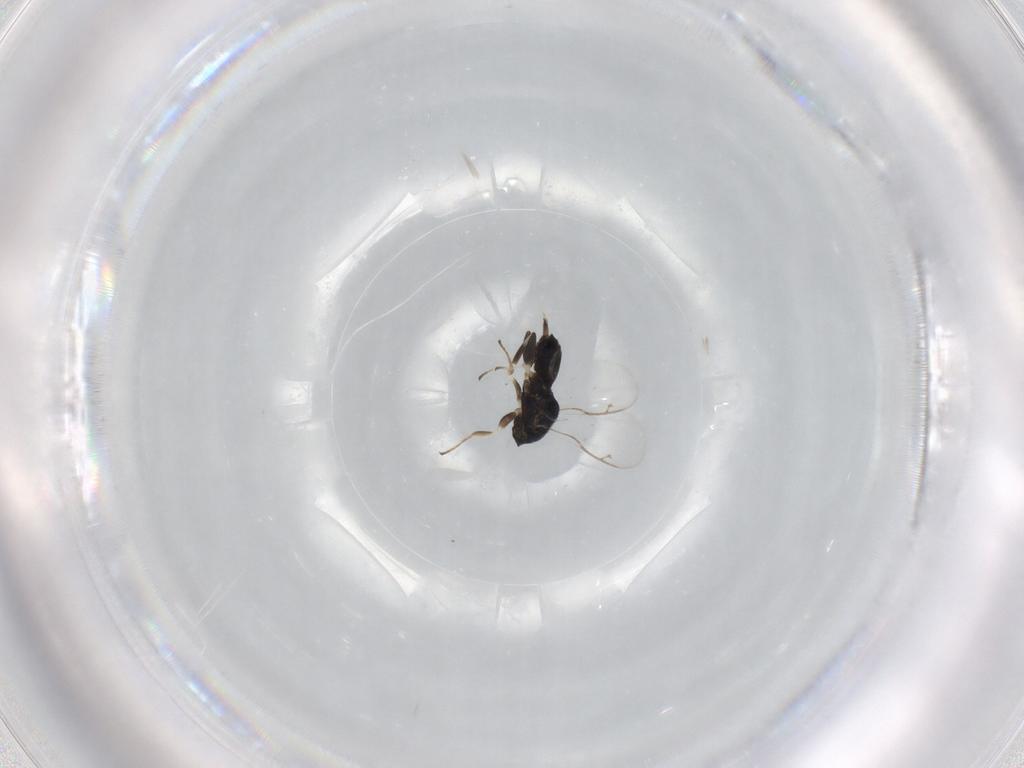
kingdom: Animalia
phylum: Arthropoda
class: Insecta
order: Hymenoptera
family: Eupelmidae
